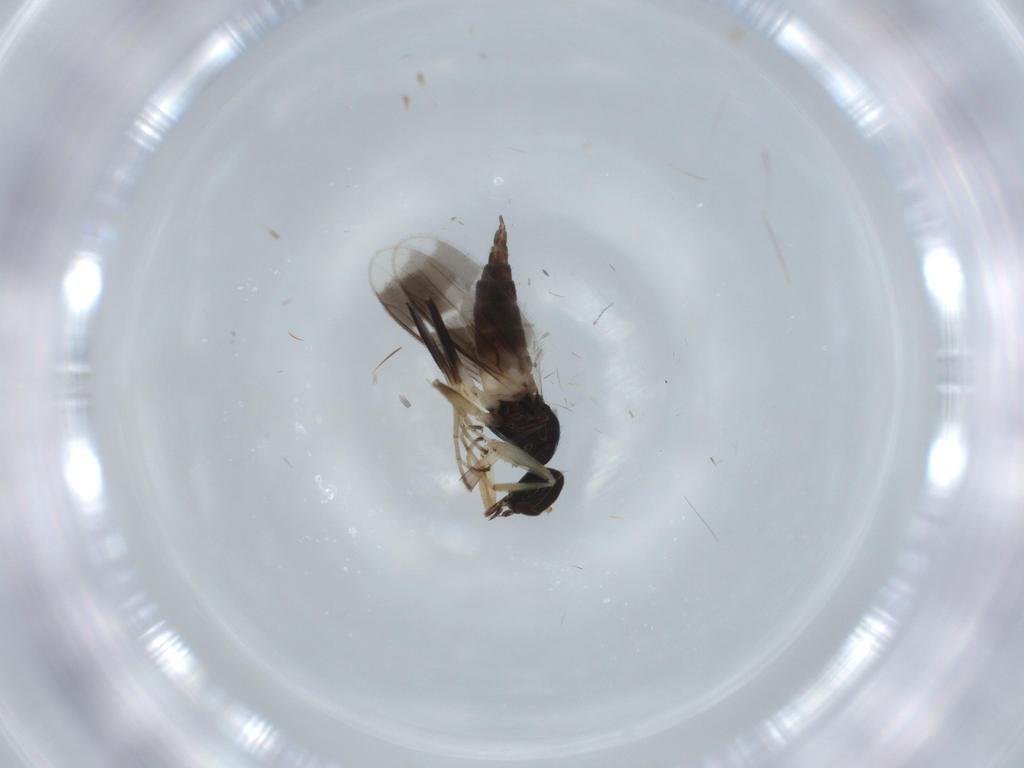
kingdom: Animalia
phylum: Arthropoda
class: Insecta
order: Diptera
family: Hybotidae
